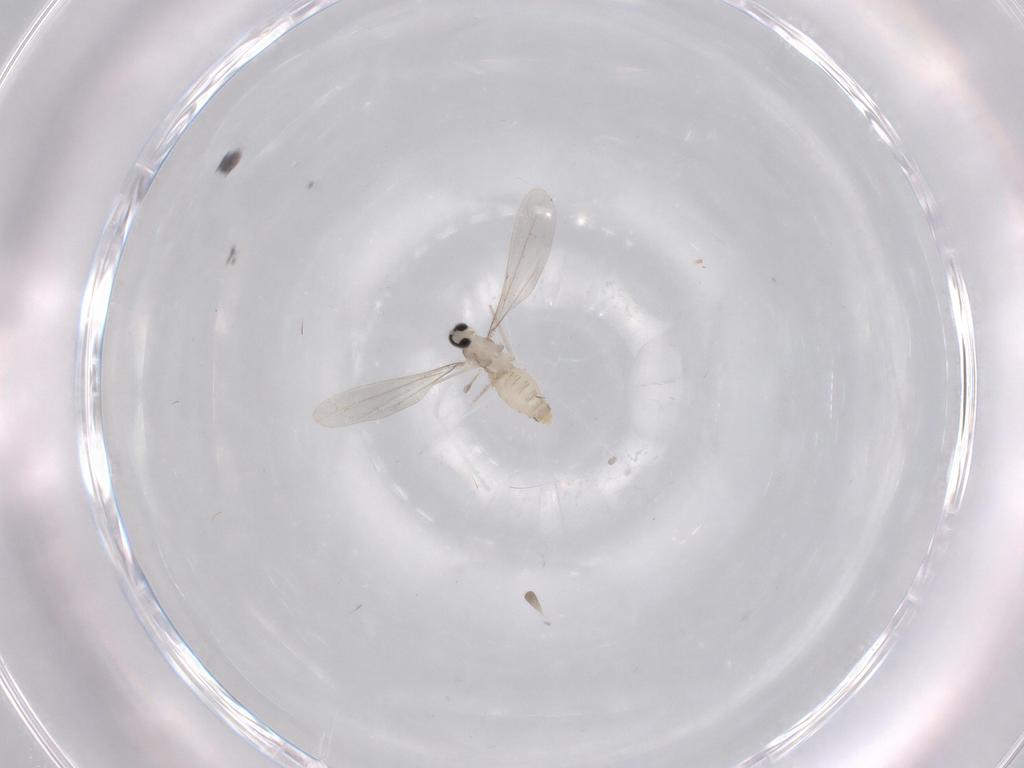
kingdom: Animalia
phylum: Arthropoda
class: Insecta
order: Diptera
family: Cecidomyiidae
